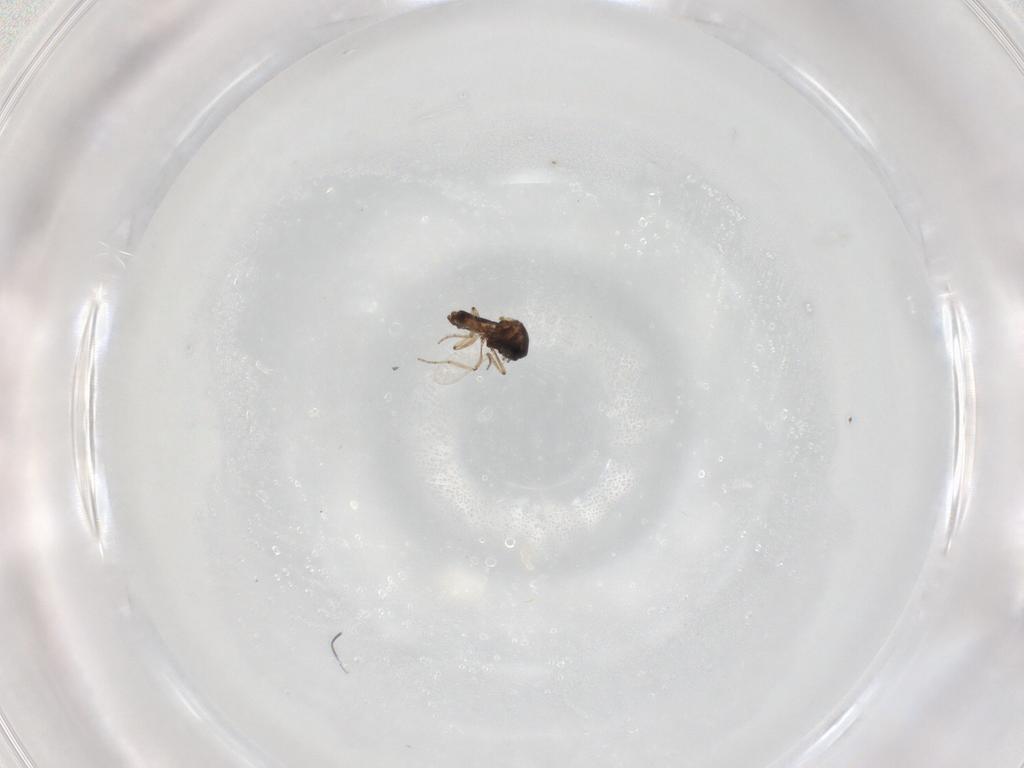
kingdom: Animalia
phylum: Arthropoda
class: Insecta
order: Diptera
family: Ceratopogonidae
